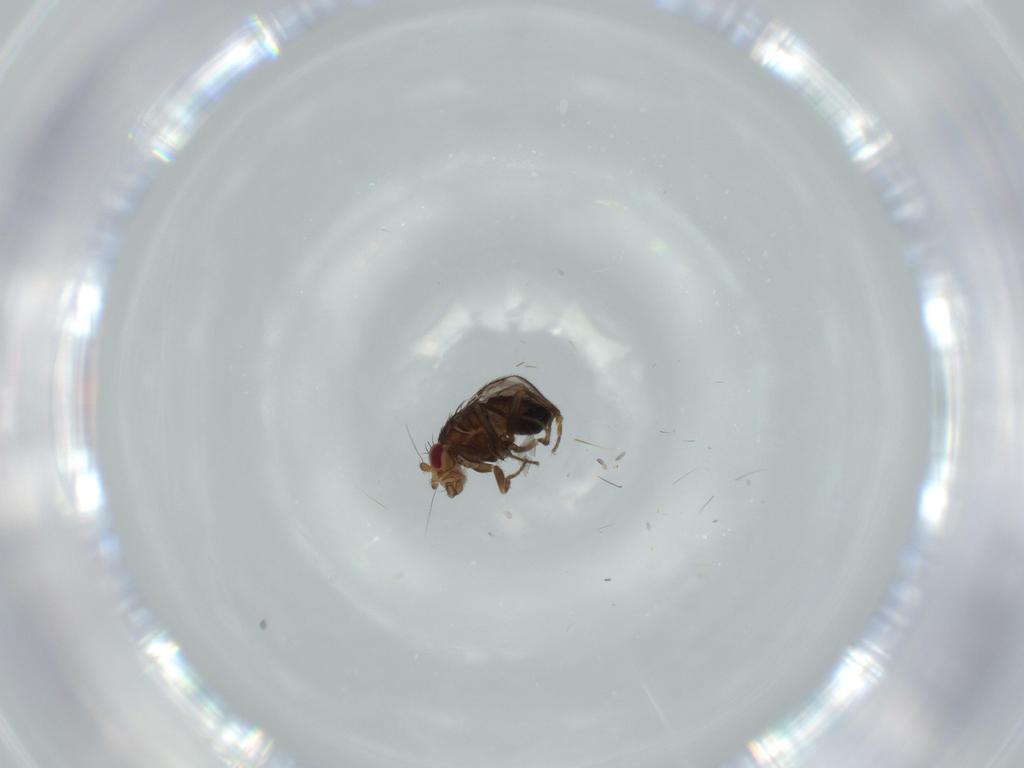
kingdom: Animalia
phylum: Arthropoda
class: Insecta
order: Diptera
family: Sphaeroceridae
